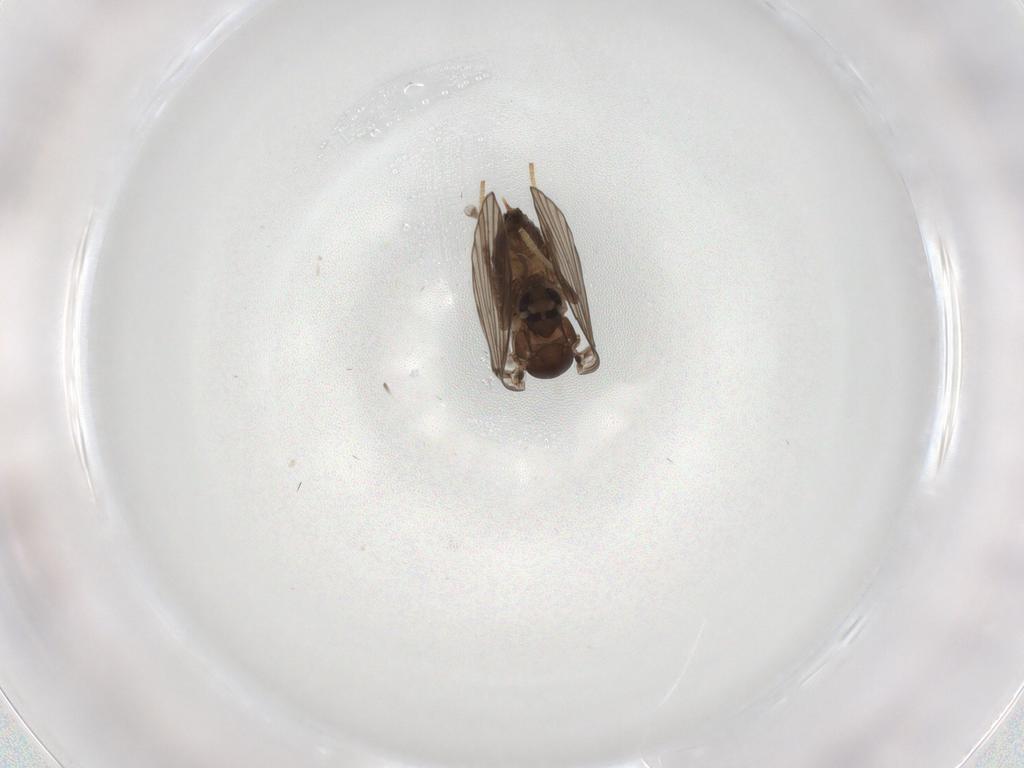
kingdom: Animalia
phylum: Arthropoda
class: Insecta
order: Diptera
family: Psychodidae
